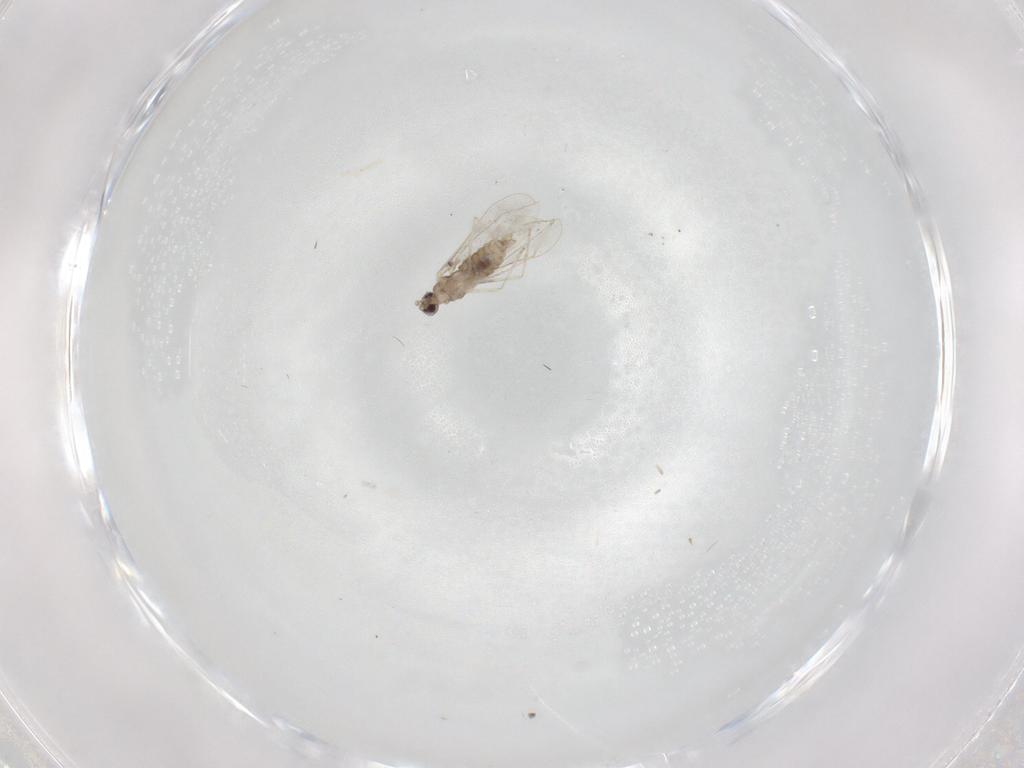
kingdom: Animalia
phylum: Arthropoda
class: Insecta
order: Diptera
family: Cecidomyiidae
